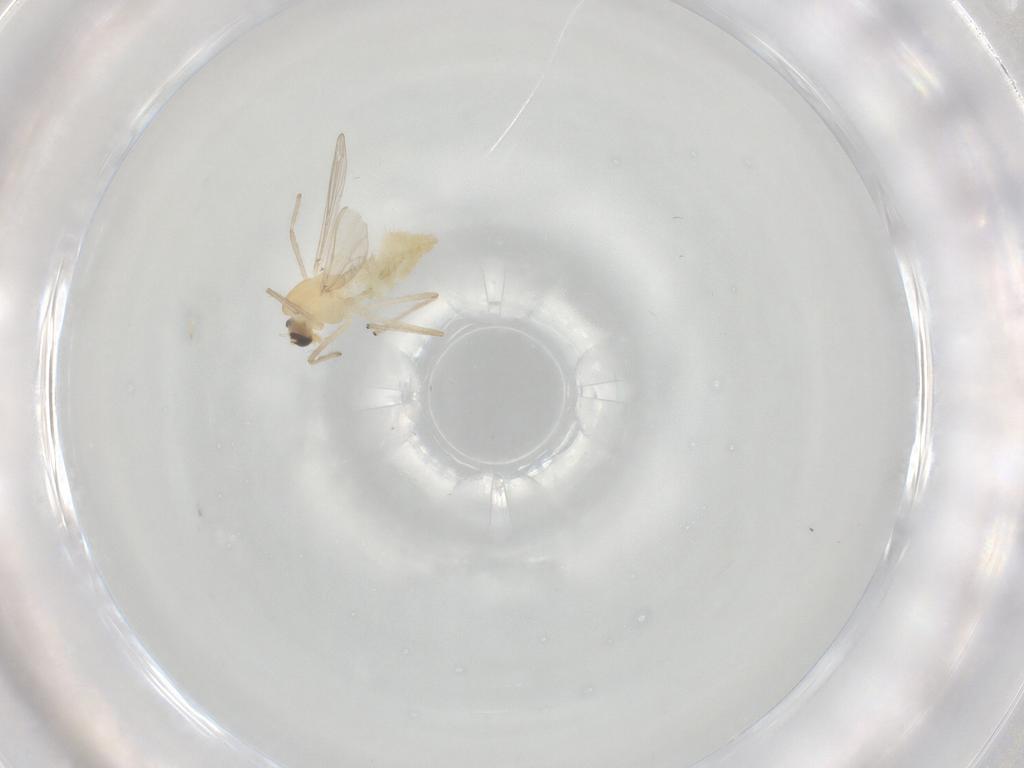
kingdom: Animalia
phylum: Arthropoda
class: Insecta
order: Diptera
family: Chironomidae
